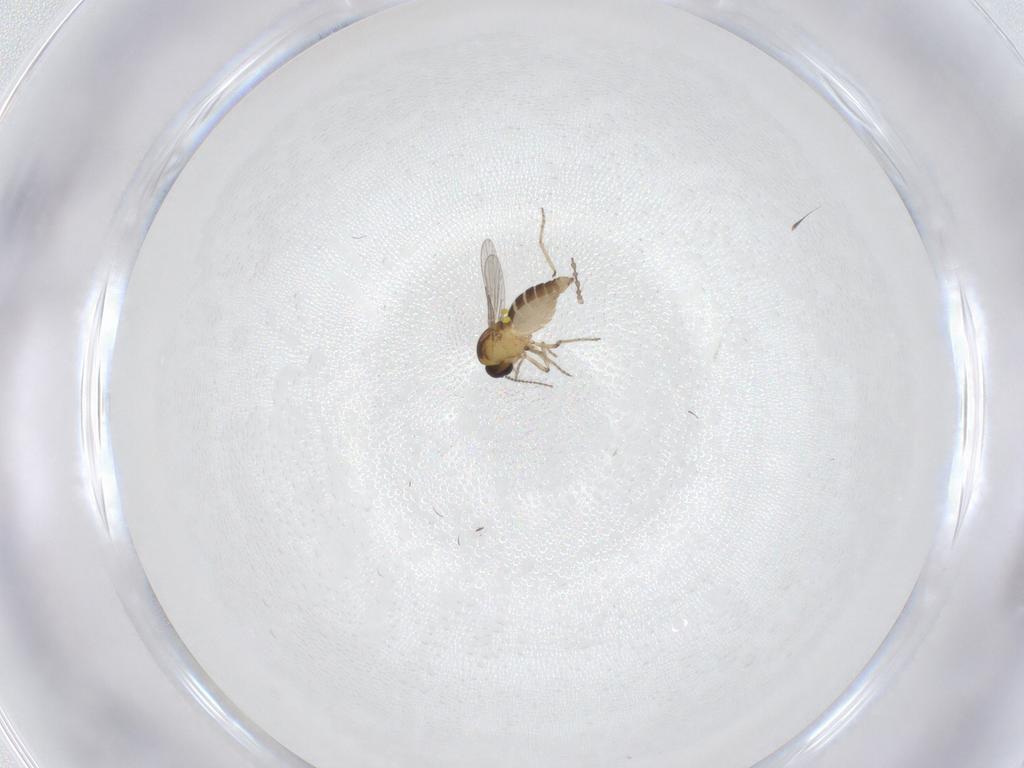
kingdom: Animalia
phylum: Arthropoda
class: Insecta
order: Diptera
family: Ceratopogonidae
